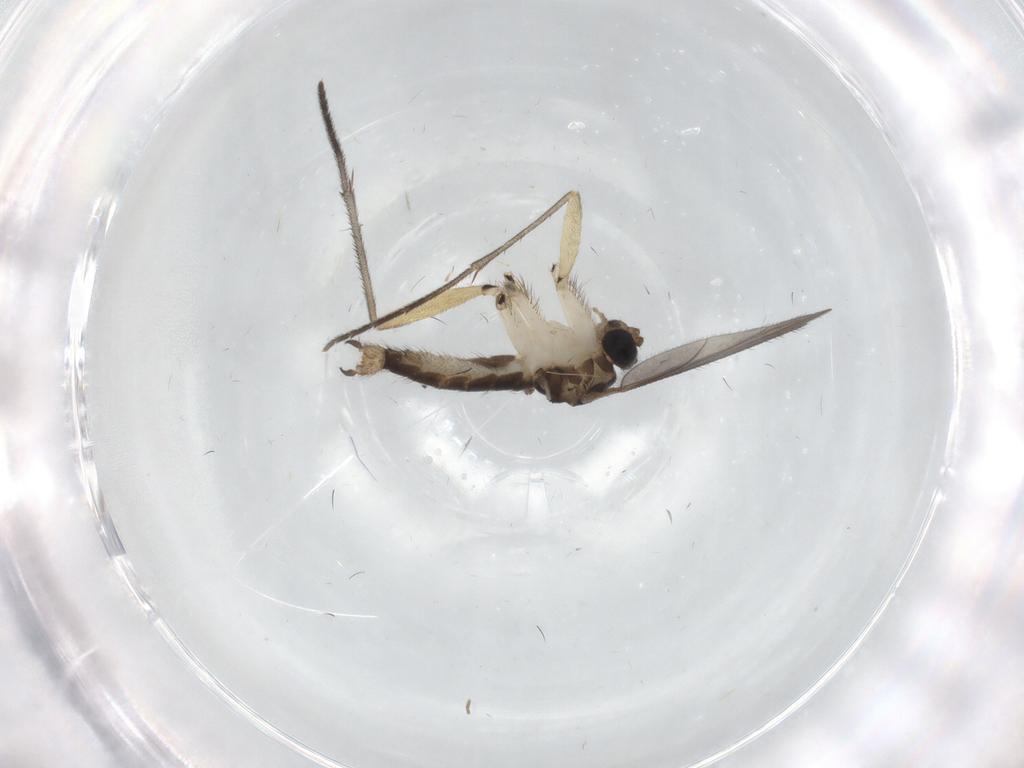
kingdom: Animalia
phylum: Arthropoda
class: Insecta
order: Diptera
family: Sciaridae
